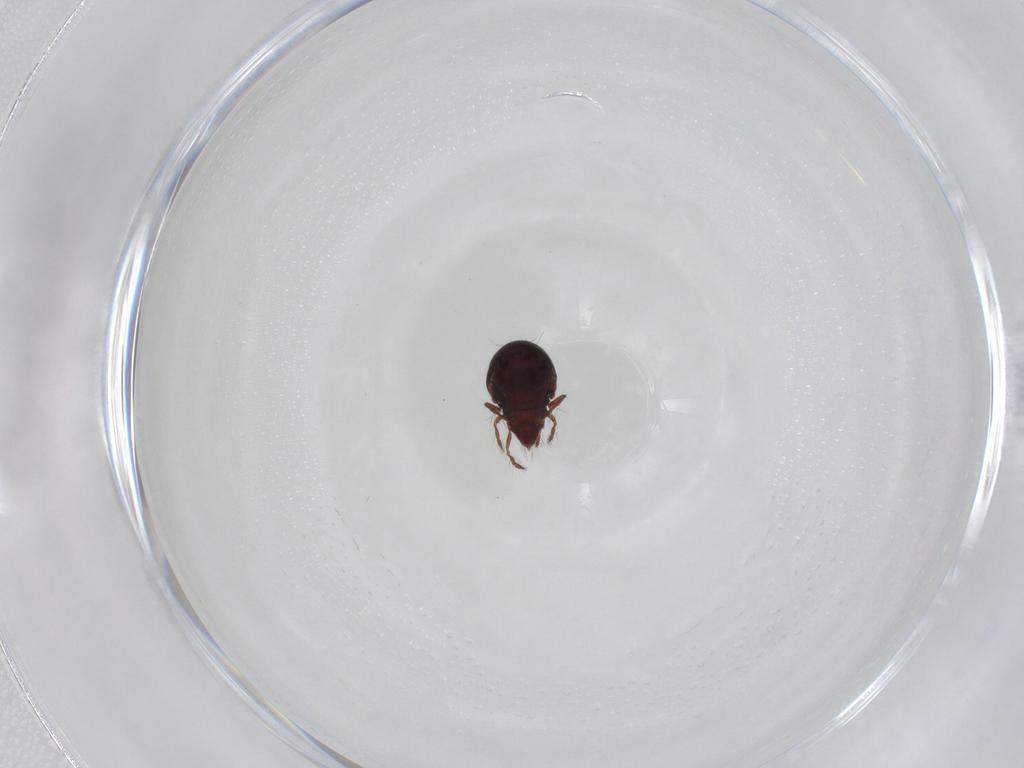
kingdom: Animalia
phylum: Arthropoda
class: Arachnida
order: Sarcoptiformes
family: Ceratoppiidae
